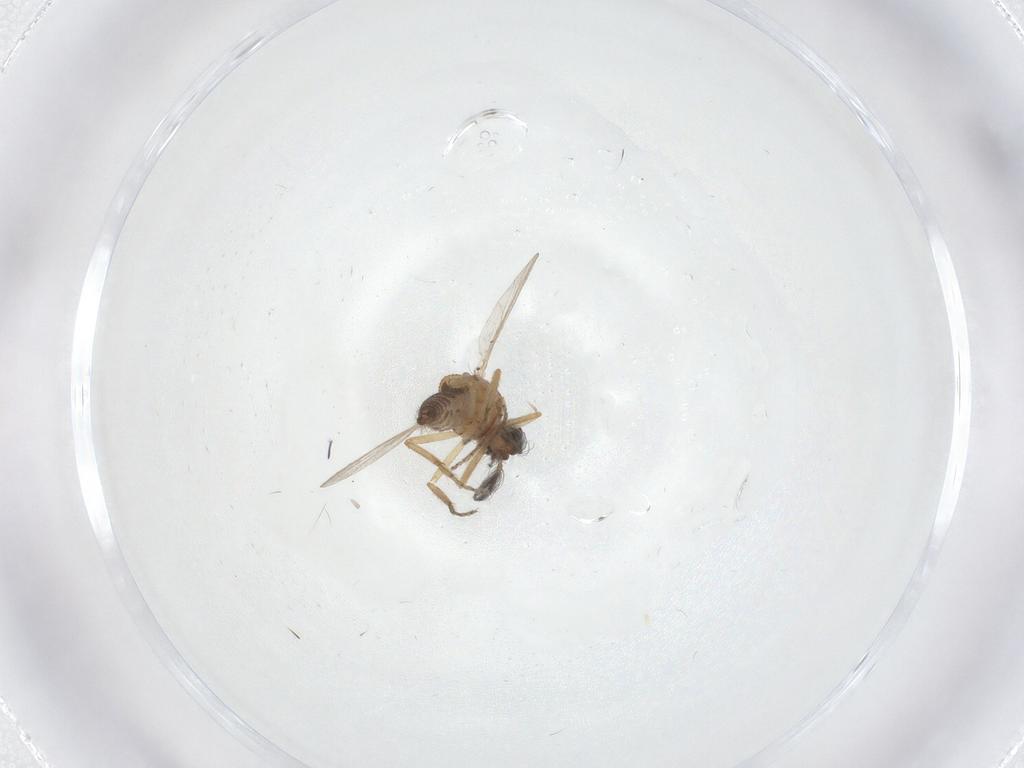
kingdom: Animalia
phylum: Arthropoda
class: Insecta
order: Diptera
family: Ceratopogonidae
